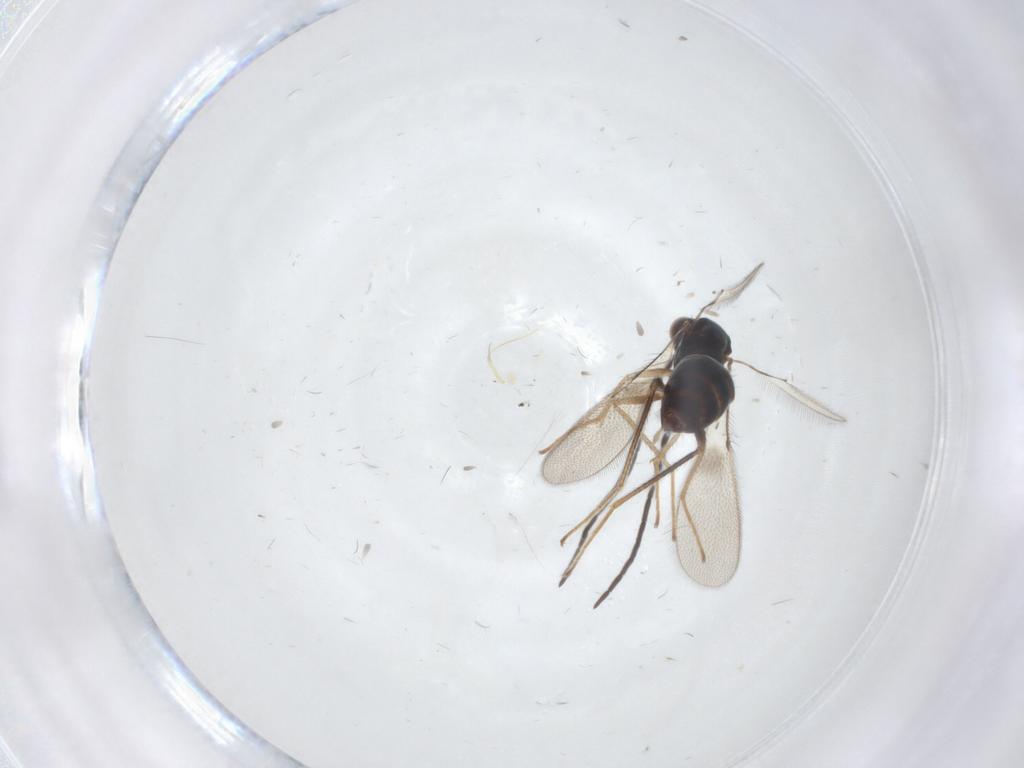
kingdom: Animalia
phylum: Arthropoda
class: Insecta
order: Hymenoptera
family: Mymaridae
